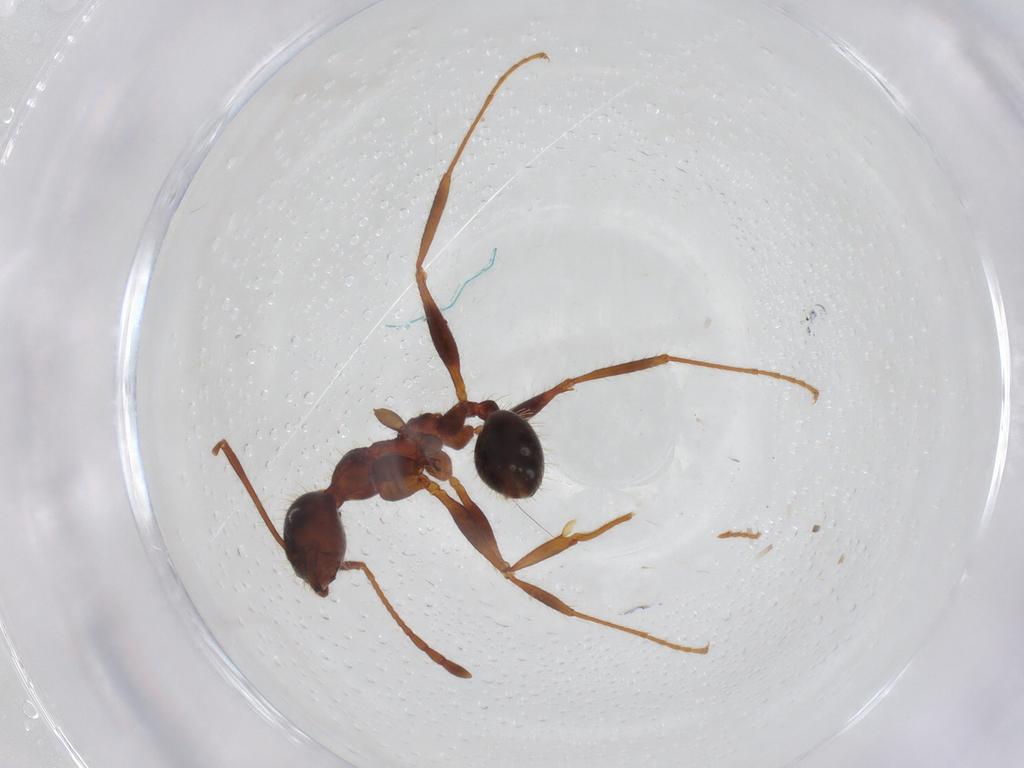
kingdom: Animalia
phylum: Arthropoda
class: Insecta
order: Hymenoptera
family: Formicidae
